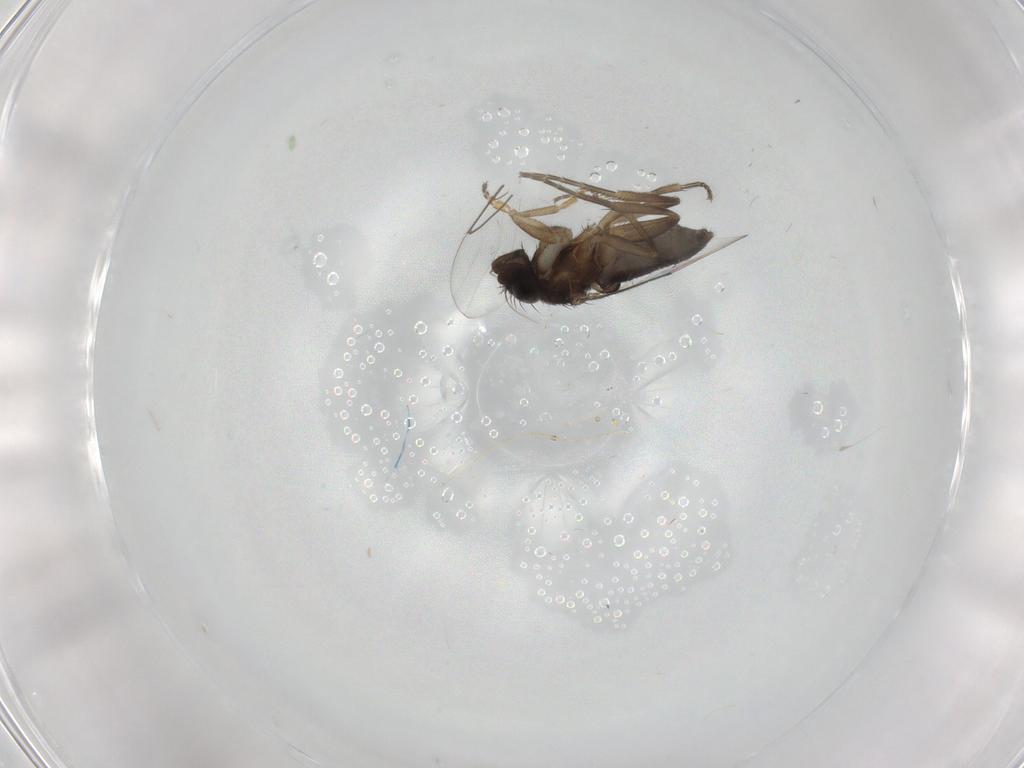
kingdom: Animalia
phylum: Arthropoda
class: Insecta
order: Diptera
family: Phoridae
